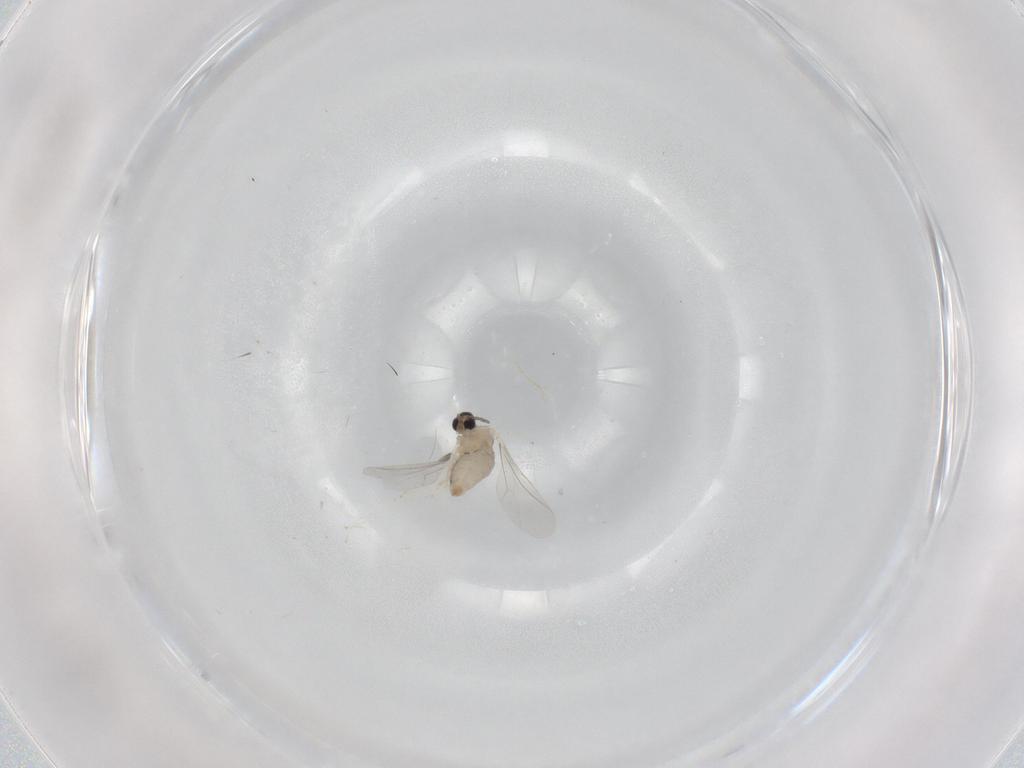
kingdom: Animalia
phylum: Arthropoda
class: Insecta
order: Diptera
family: Cecidomyiidae
